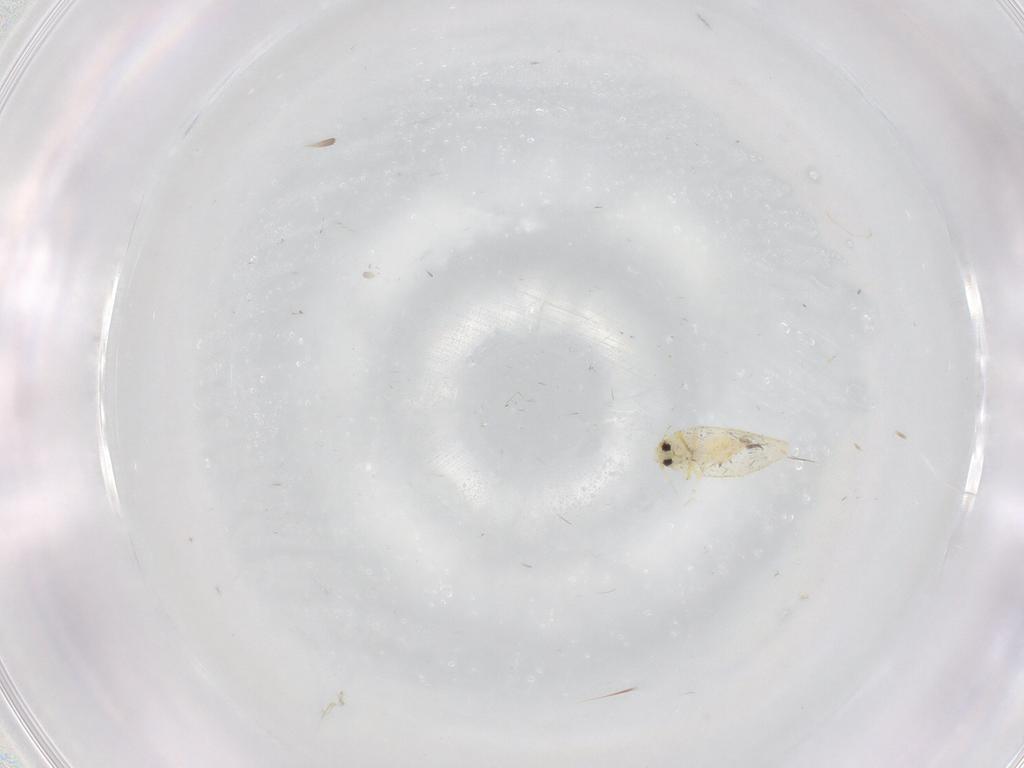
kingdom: Animalia
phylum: Arthropoda
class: Insecta
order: Hemiptera
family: Aleyrodidae
